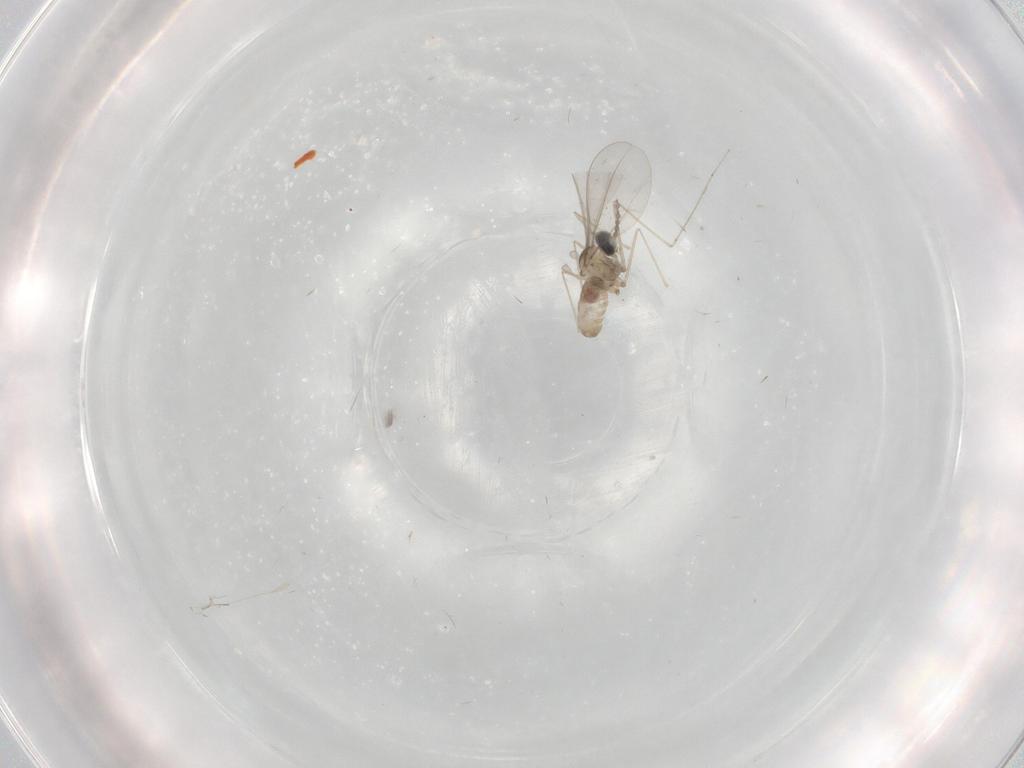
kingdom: Animalia
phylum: Arthropoda
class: Insecta
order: Diptera
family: Cecidomyiidae
